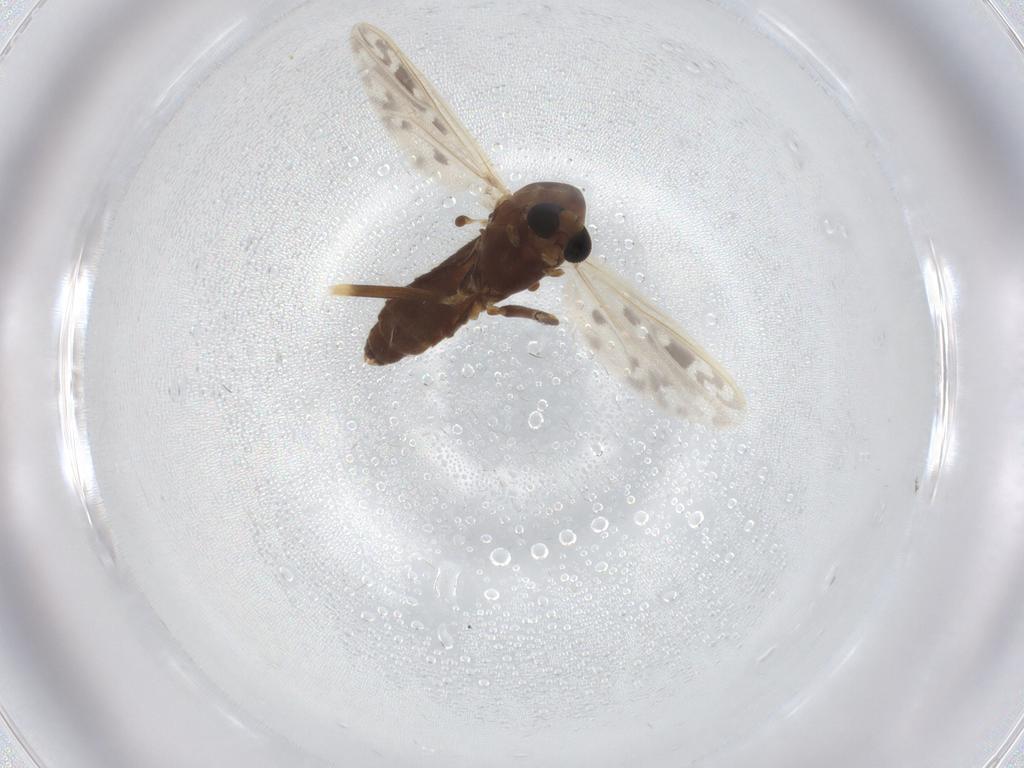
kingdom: Animalia
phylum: Arthropoda
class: Insecta
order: Diptera
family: Chironomidae
